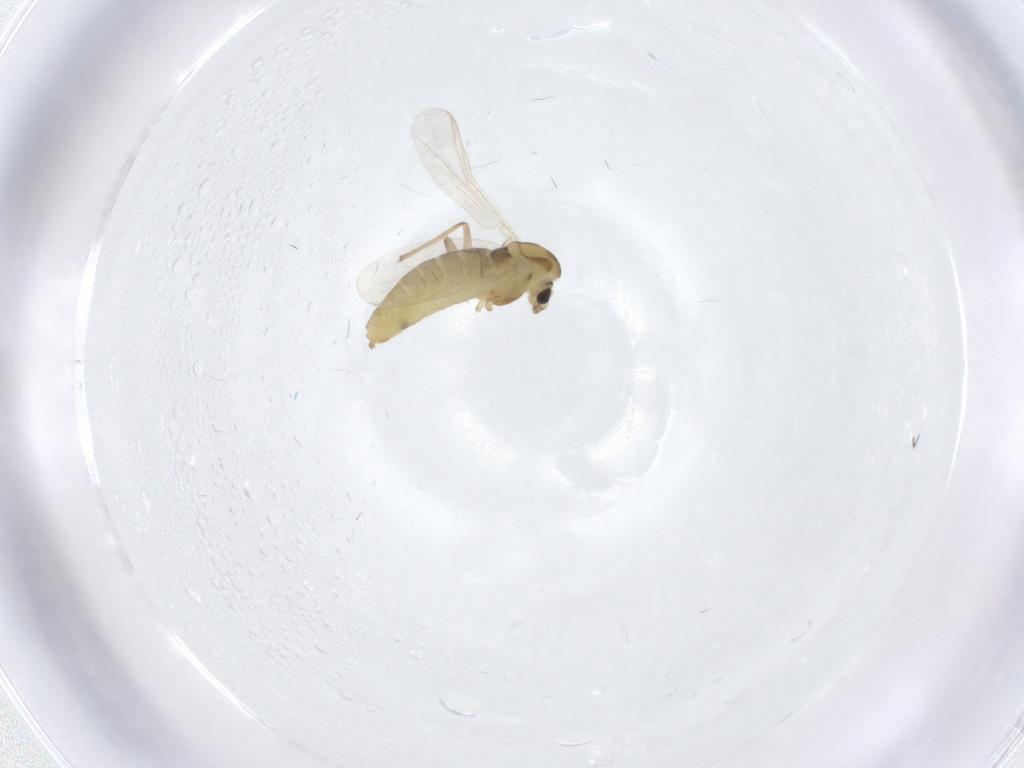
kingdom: Animalia
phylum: Arthropoda
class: Insecta
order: Diptera
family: Chironomidae
